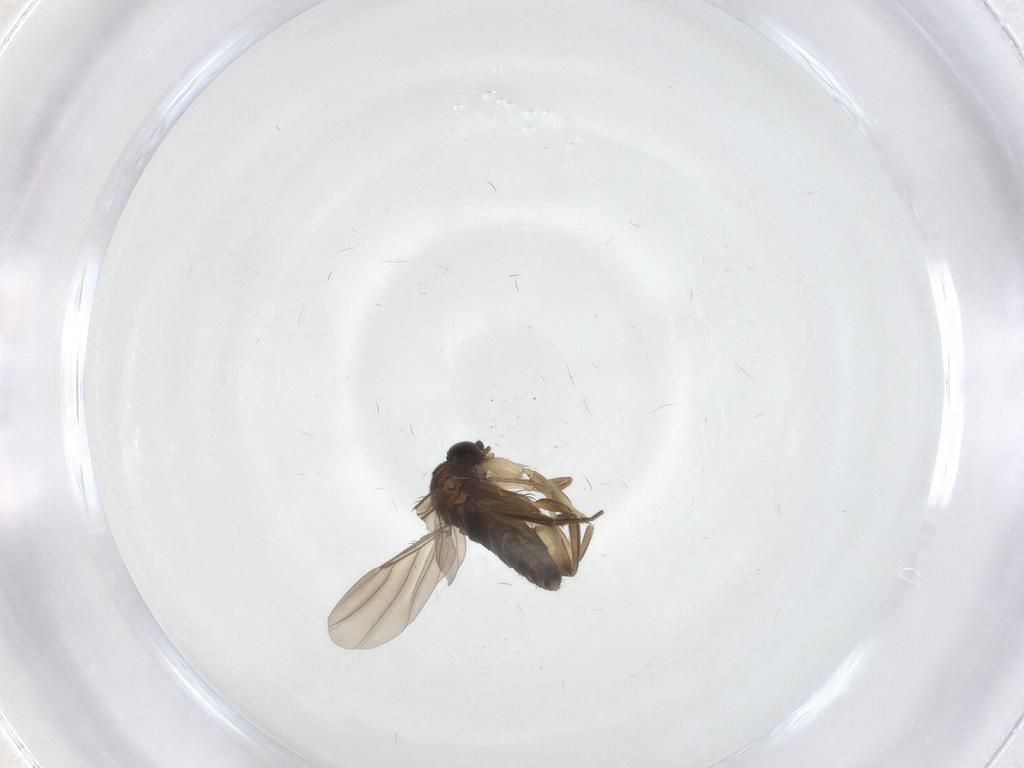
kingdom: Animalia
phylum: Arthropoda
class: Insecta
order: Diptera
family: Phoridae
